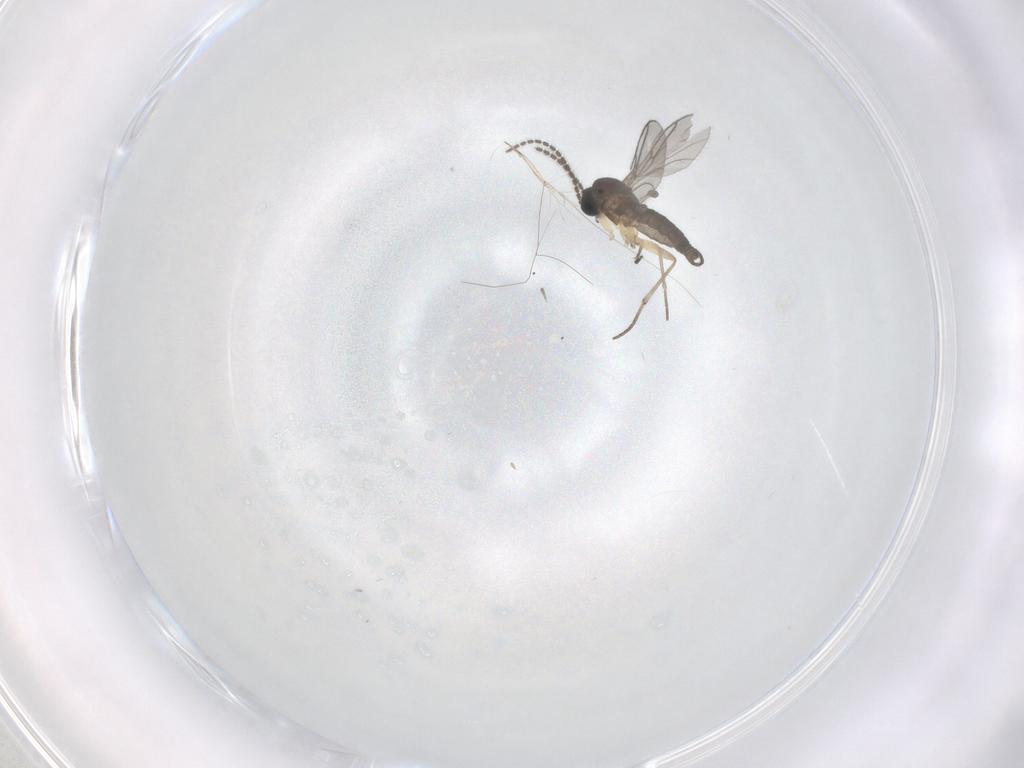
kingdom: Animalia
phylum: Arthropoda
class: Insecta
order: Diptera
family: Sciaridae
